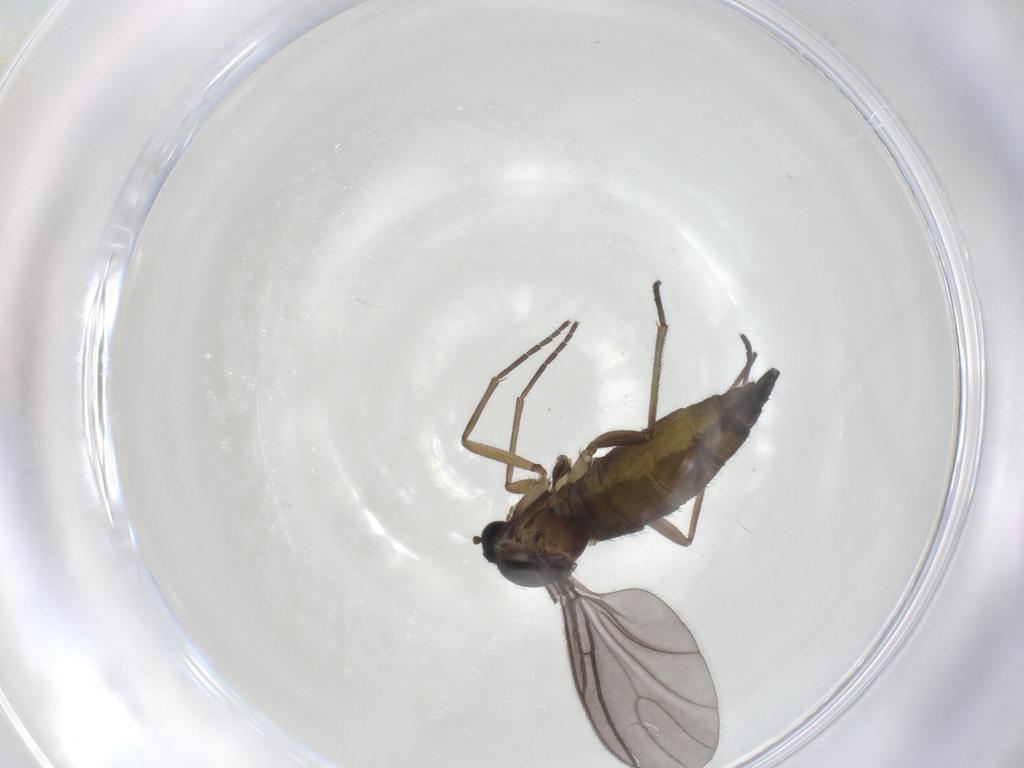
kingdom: Animalia
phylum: Arthropoda
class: Insecta
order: Diptera
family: Sciaridae
